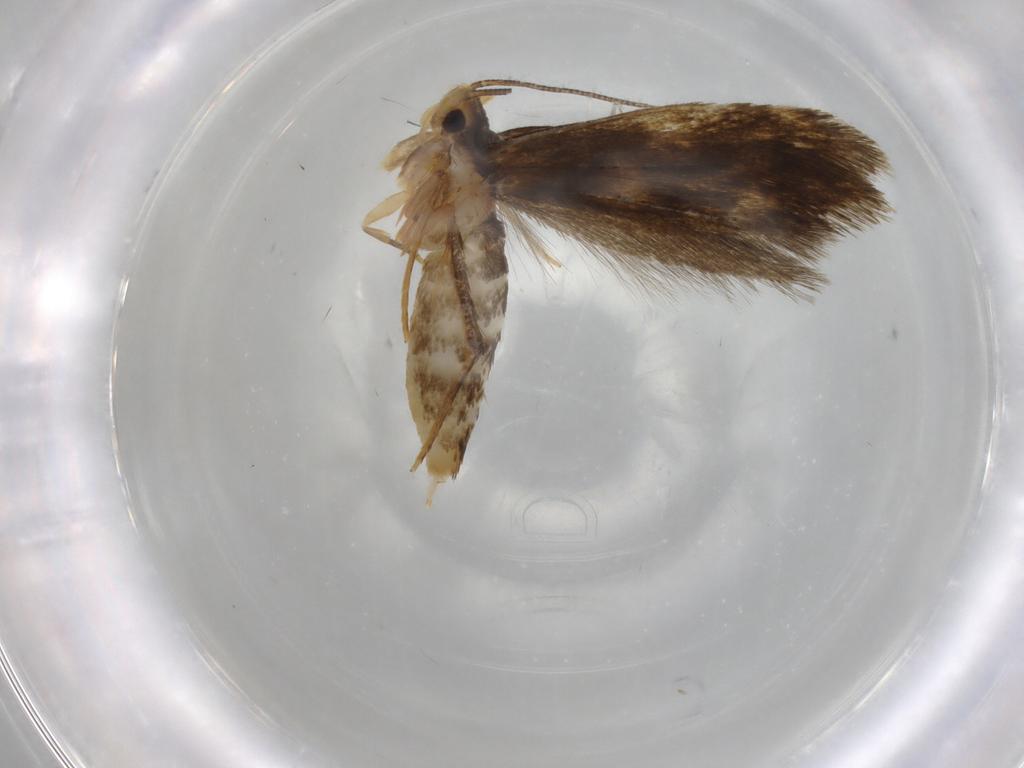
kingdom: Animalia
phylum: Arthropoda
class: Insecta
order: Lepidoptera
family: Tineidae
